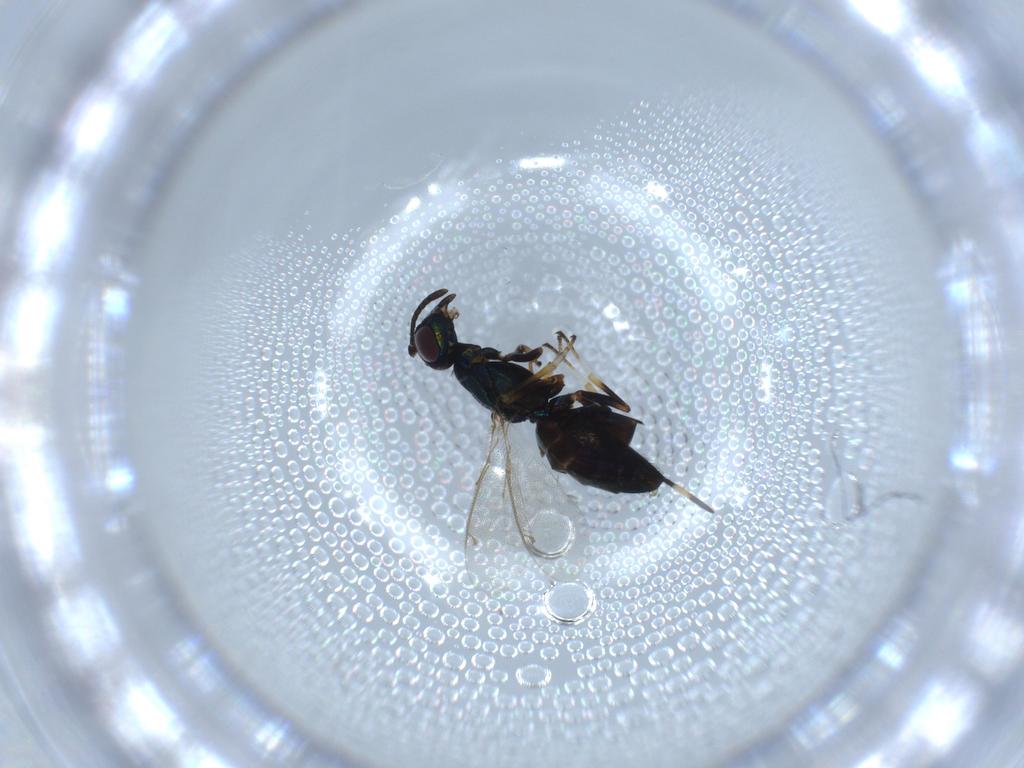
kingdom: Animalia
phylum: Arthropoda
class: Insecta
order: Hymenoptera
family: Eupelmidae
